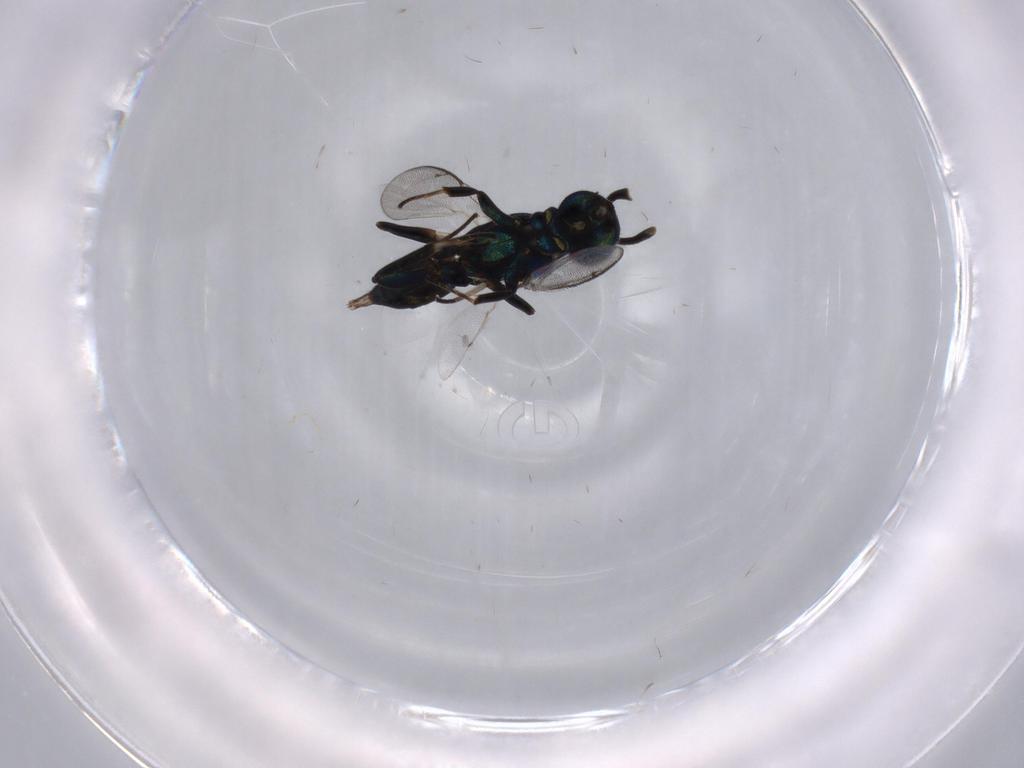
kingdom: Animalia
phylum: Arthropoda
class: Insecta
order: Hymenoptera
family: Eupelmidae
